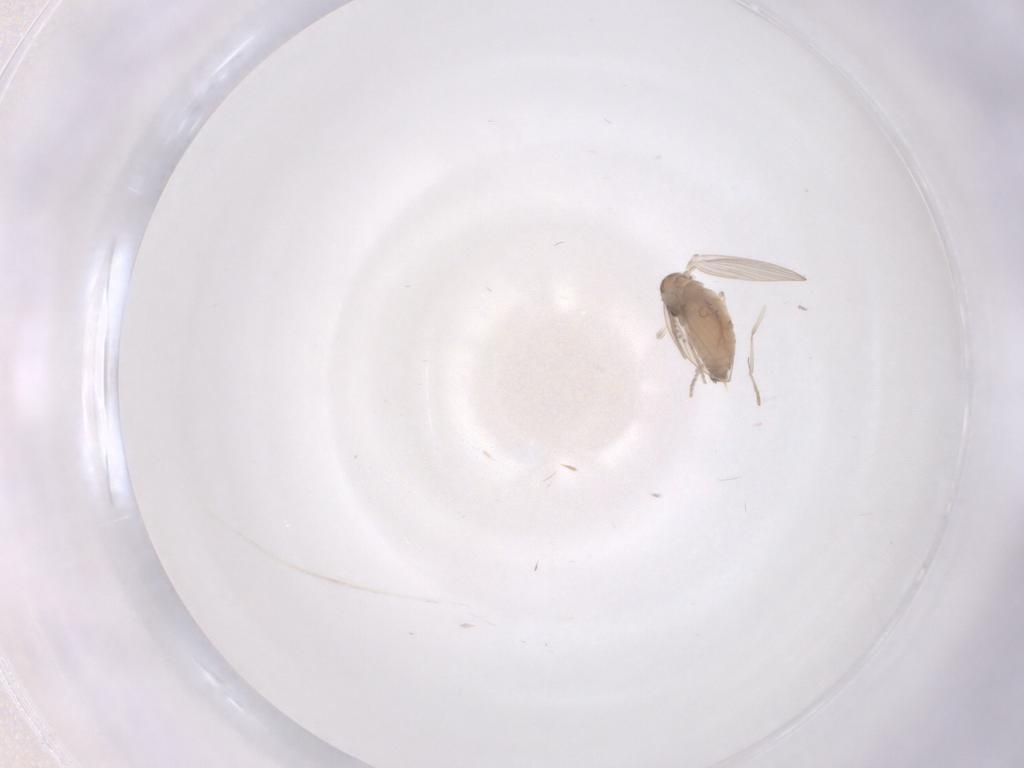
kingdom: Animalia
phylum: Arthropoda
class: Insecta
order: Diptera
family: Psychodidae
